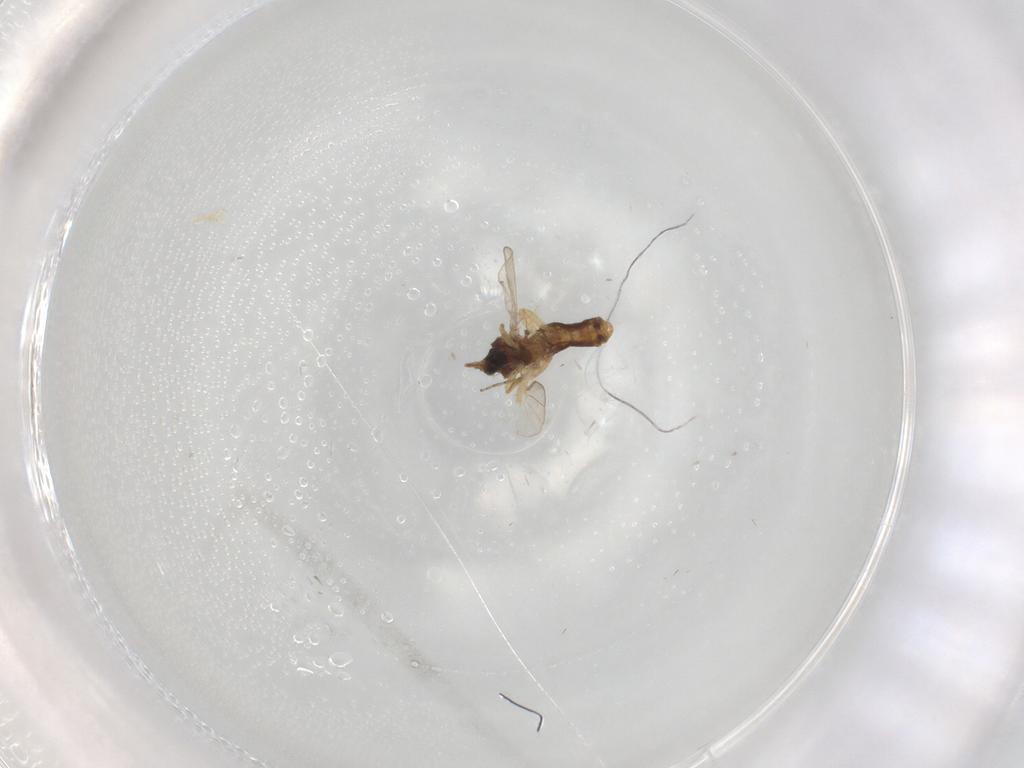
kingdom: Animalia
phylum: Arthropoda
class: Insecta
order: Diptera
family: Ceratopogonidae
